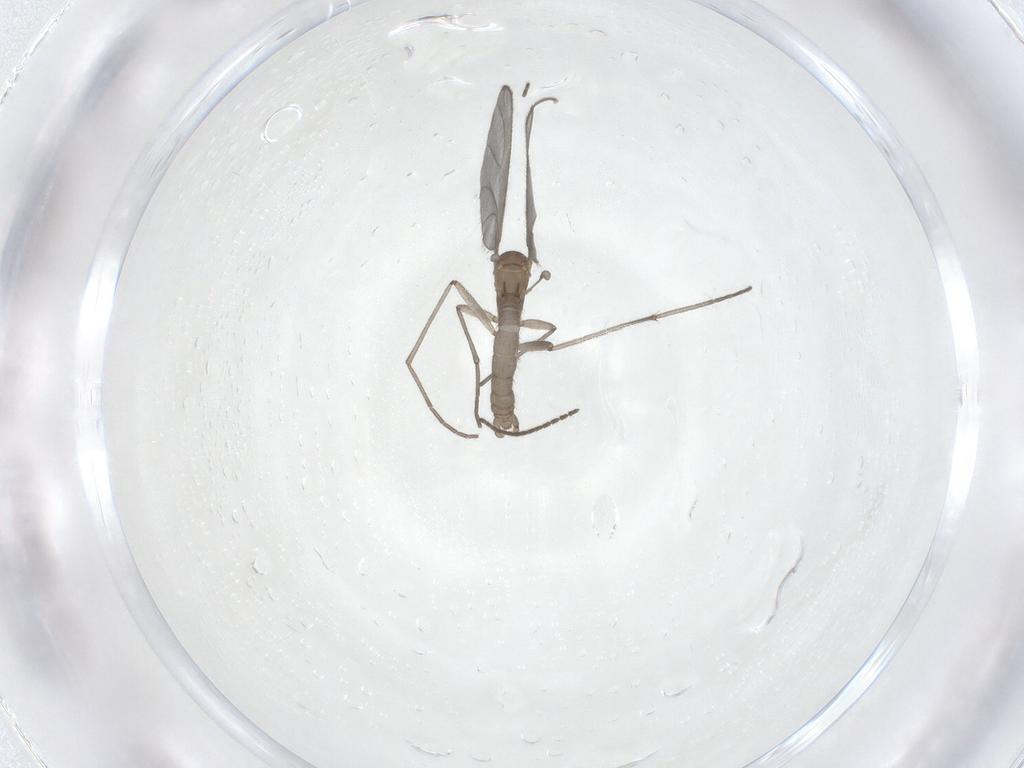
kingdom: Animalia
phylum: Arthropoda
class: Insecta
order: Diptera
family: Sciaridae
